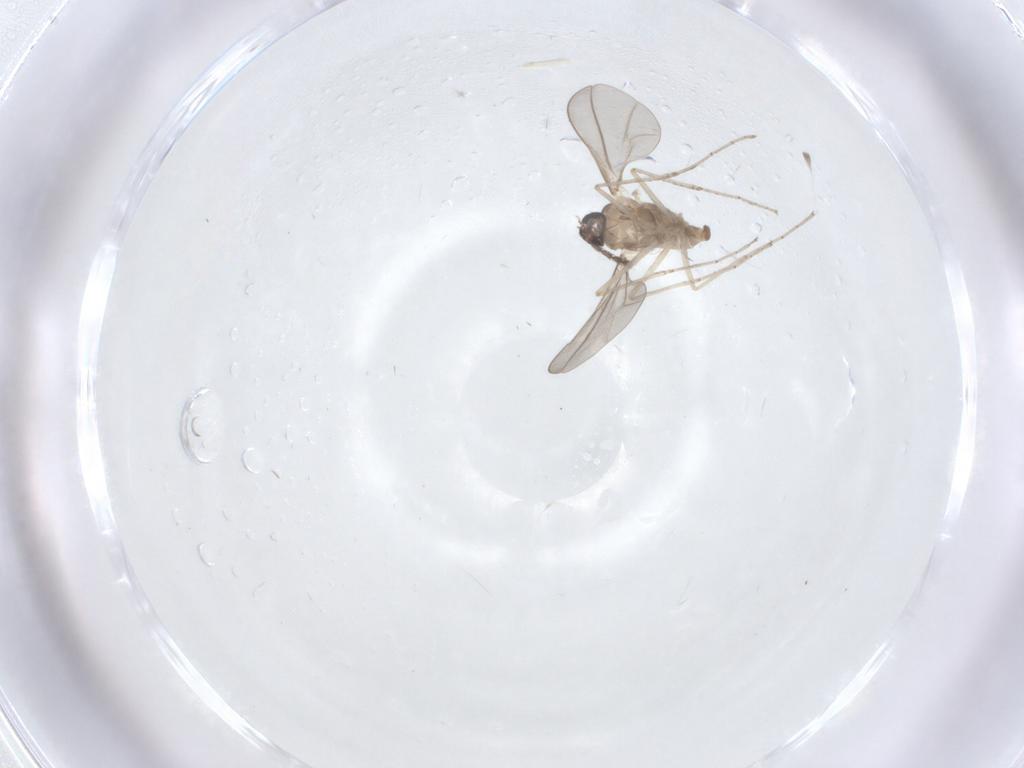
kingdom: Animalia
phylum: Arthropoda
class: Insecta
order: Diptera
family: Cecidomyiidae
